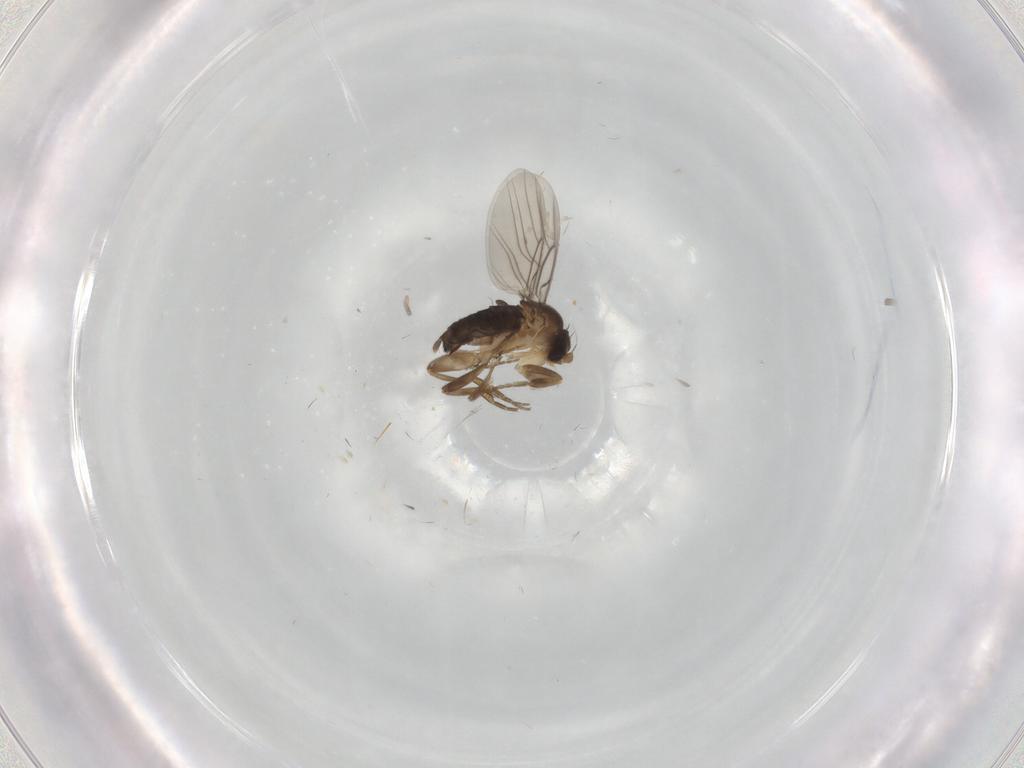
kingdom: Animalia
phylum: Arthropoda
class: Insecta
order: Diptera
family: Phoridae
